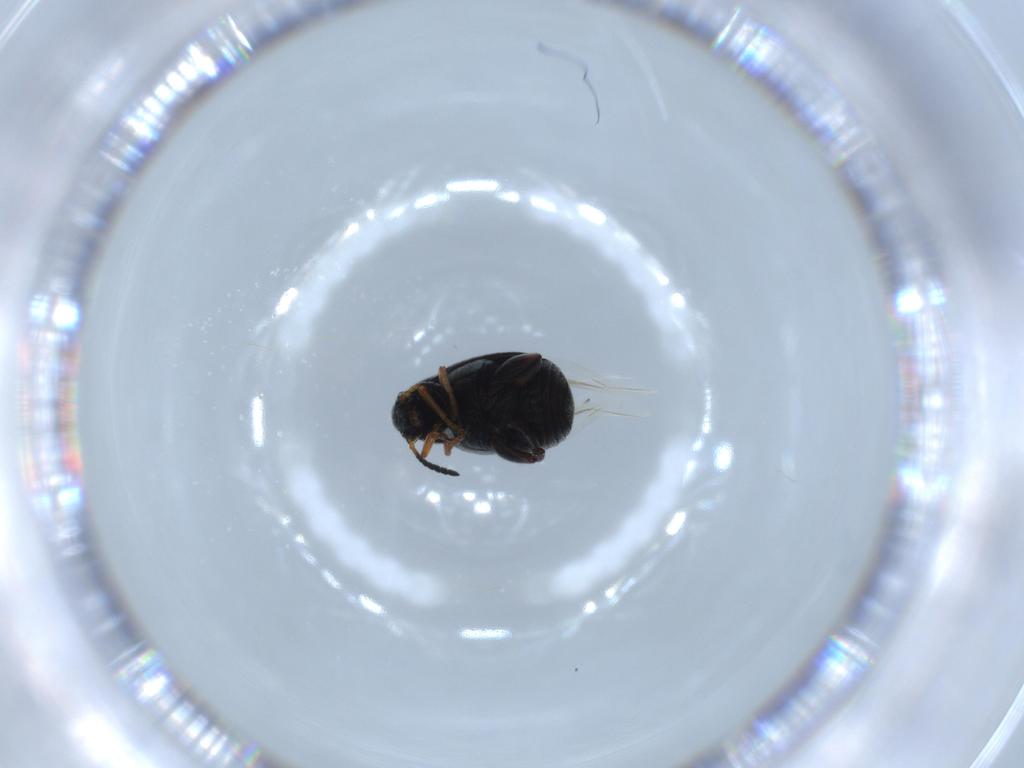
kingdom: Animalia
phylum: Arthropoda
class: Insecta
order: Coleoptera
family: Chrysomelidae
